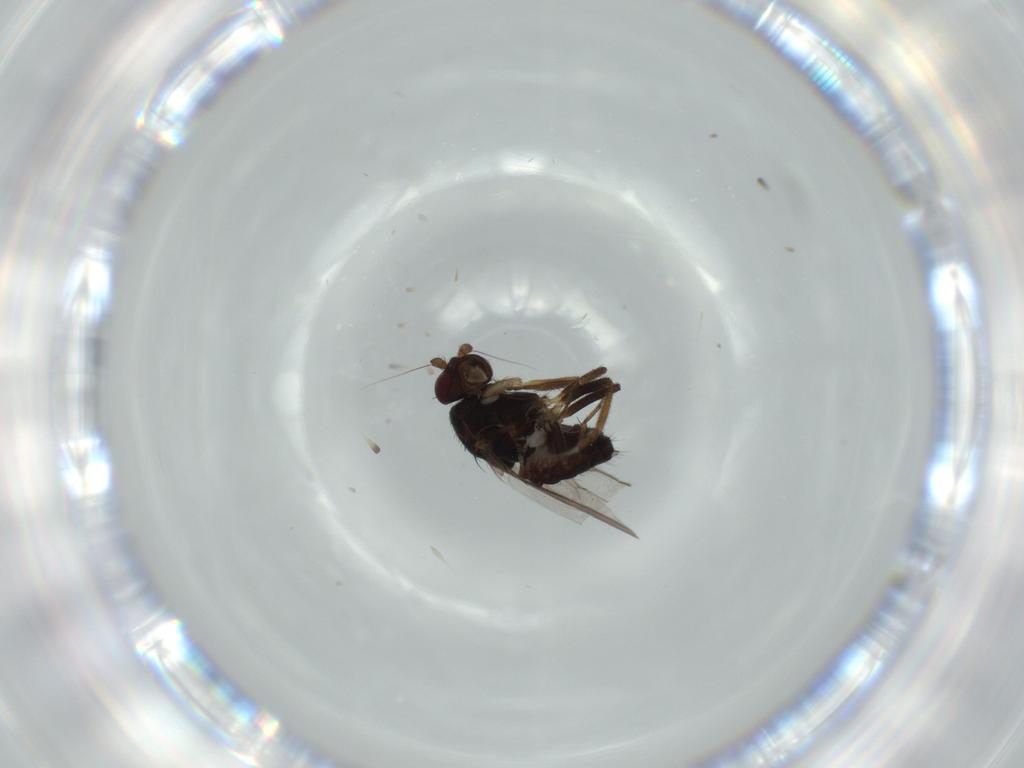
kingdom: Animalia
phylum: Arthropoda
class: Insecta
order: Diptera
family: Sphaeroceridae
